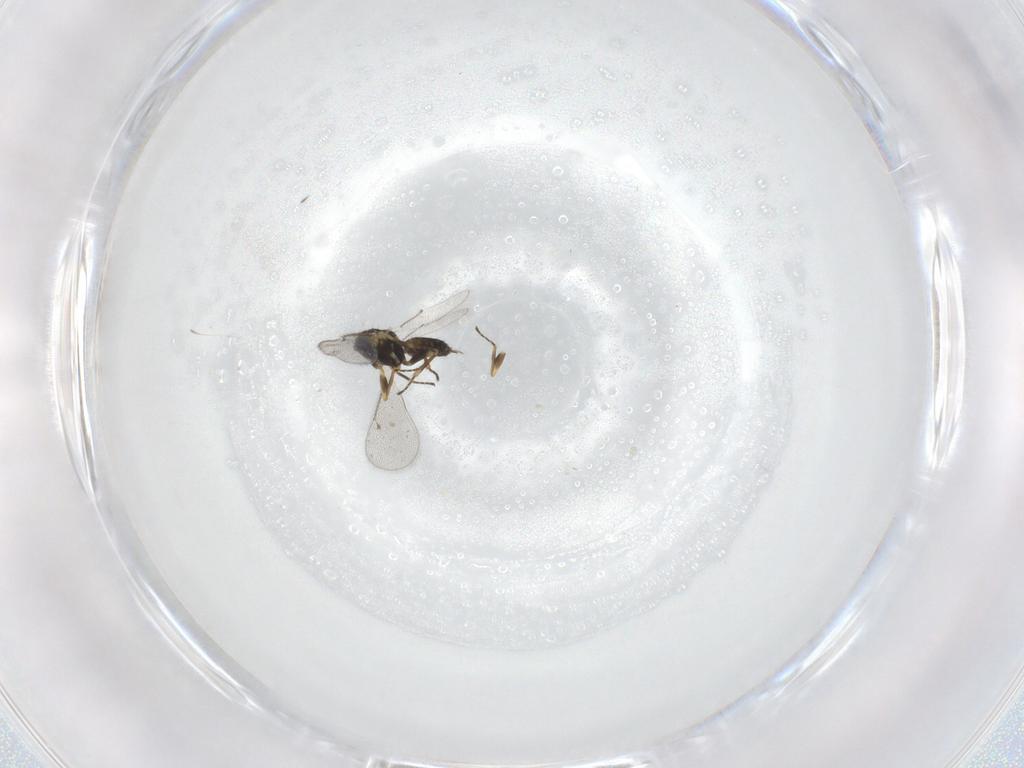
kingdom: Animalia
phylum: Arthropoda
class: Insecta
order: Hymenoptera
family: Eulophidae
